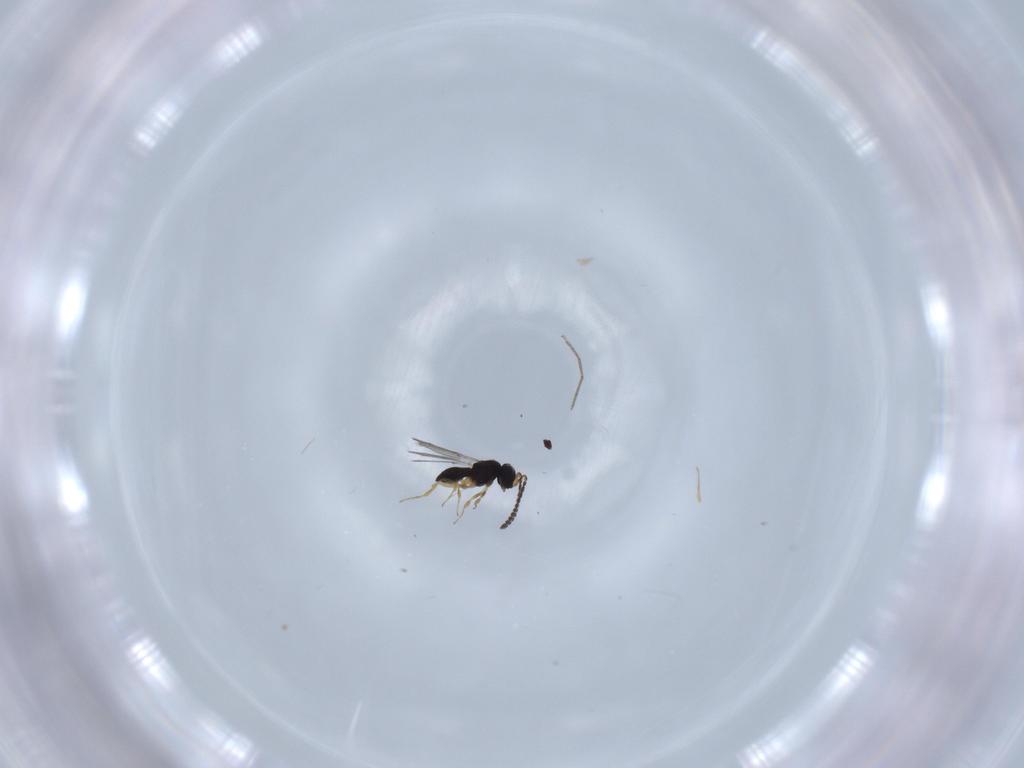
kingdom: Animalia
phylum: Arthropoda
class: Insecta
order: Hymenoptera
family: Scelionidae
